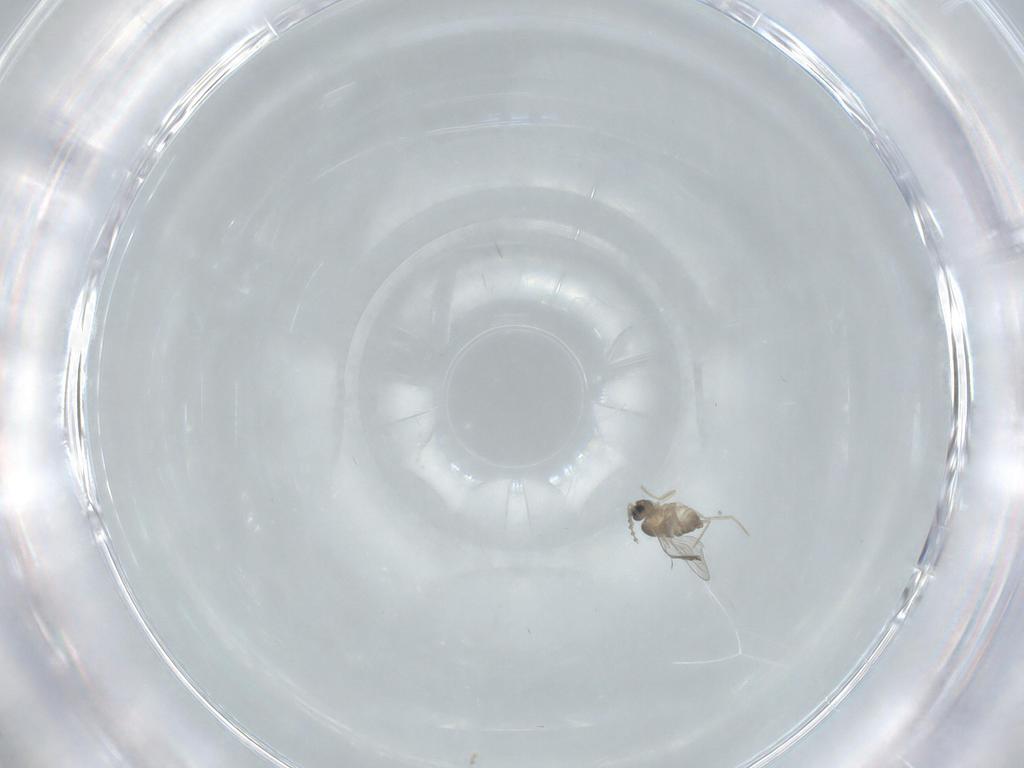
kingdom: Animalia
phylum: Arthropoda
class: Insecta
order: Diptera
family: Cecidomyiidae
